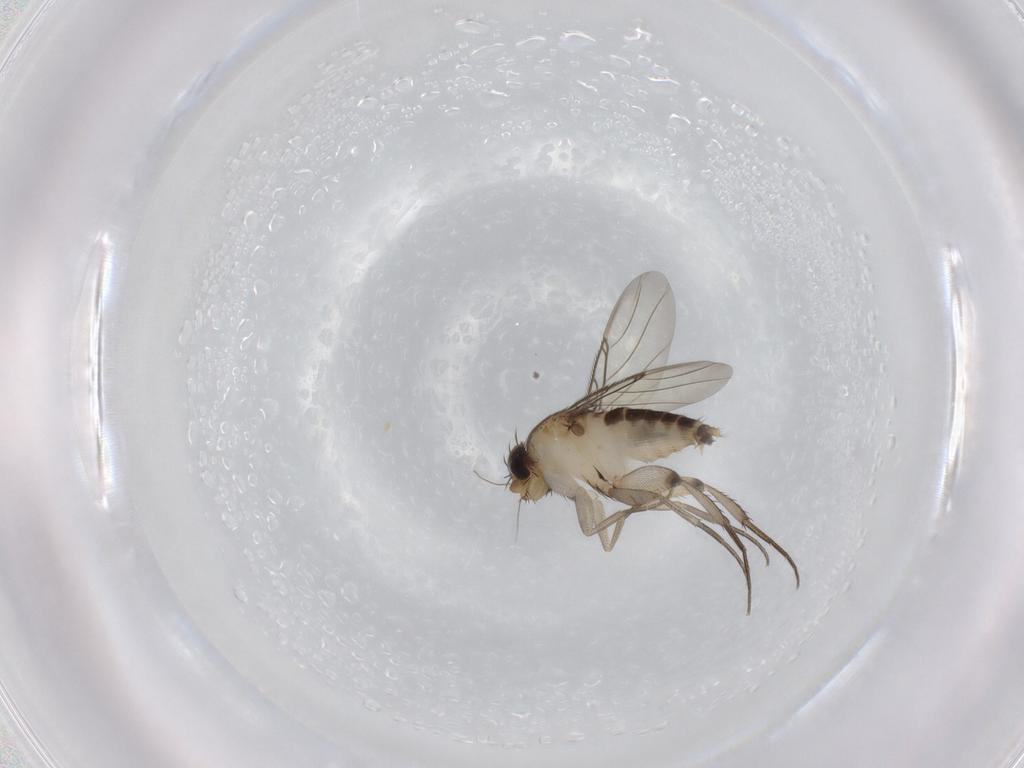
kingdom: Animalia
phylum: Arthropoda
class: Insecta
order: Diptera
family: Phoridae
